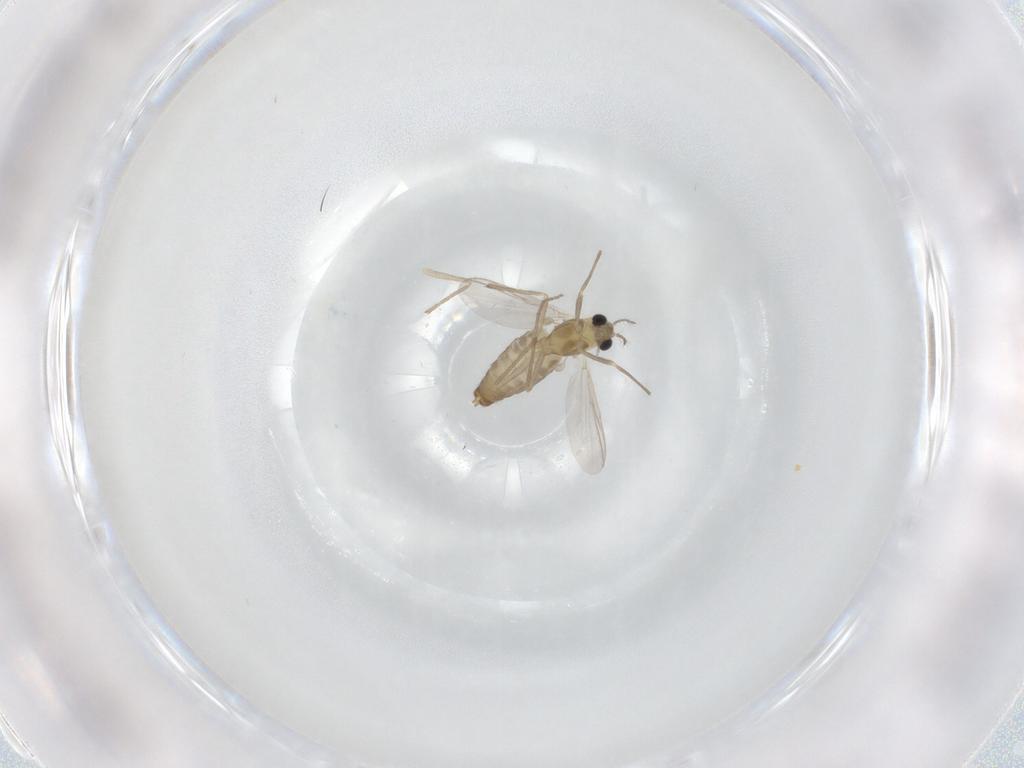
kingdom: Animalia
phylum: Arthropoda
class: Insecta
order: Diptera
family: Chironomidae
